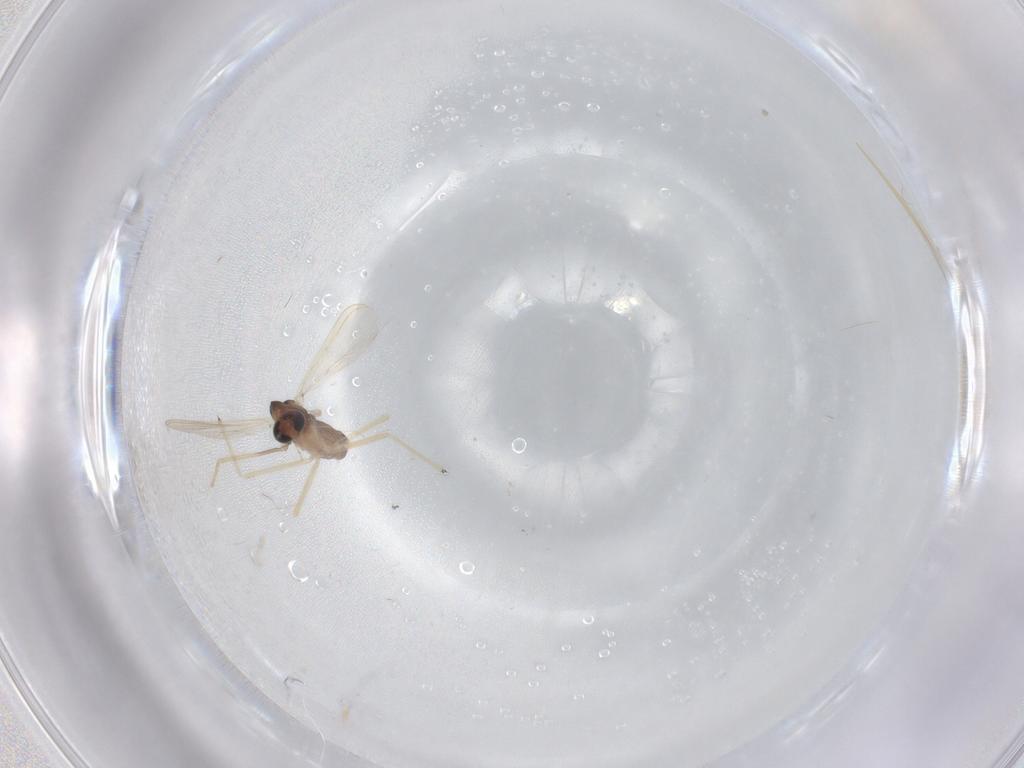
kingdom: Animalia
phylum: Arthropoda
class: Insecta
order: Diptera
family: Chironomidae
